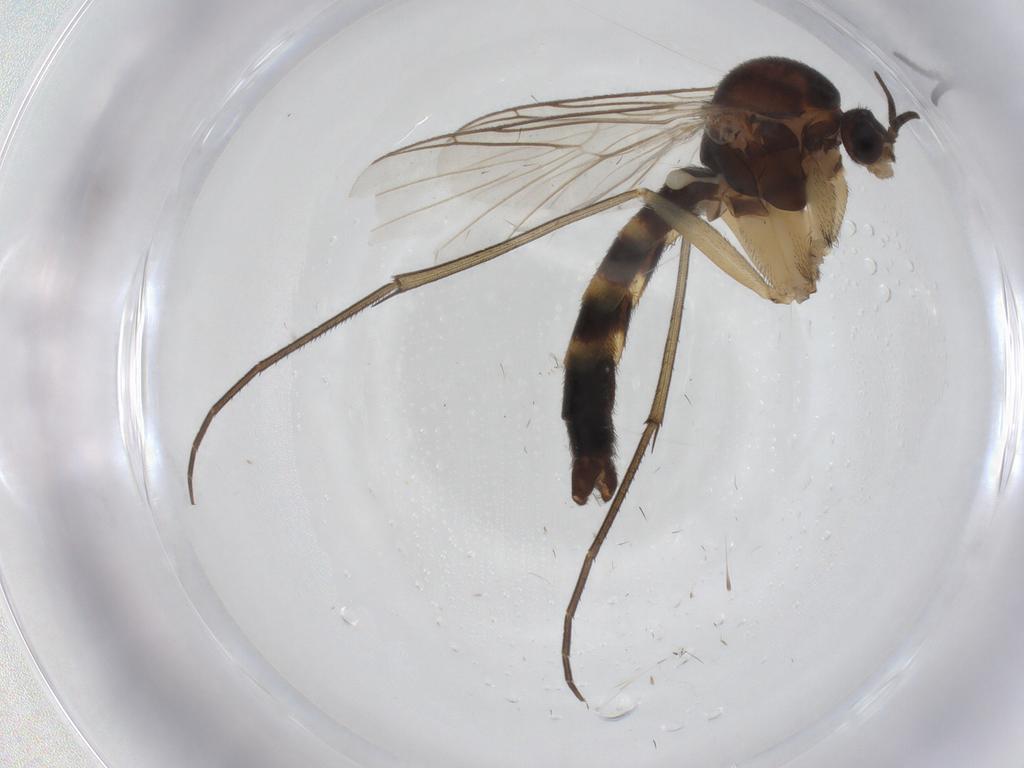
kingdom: Animalia
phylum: Arthropoda
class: Insecta
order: Diptera
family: Keroplatidae
